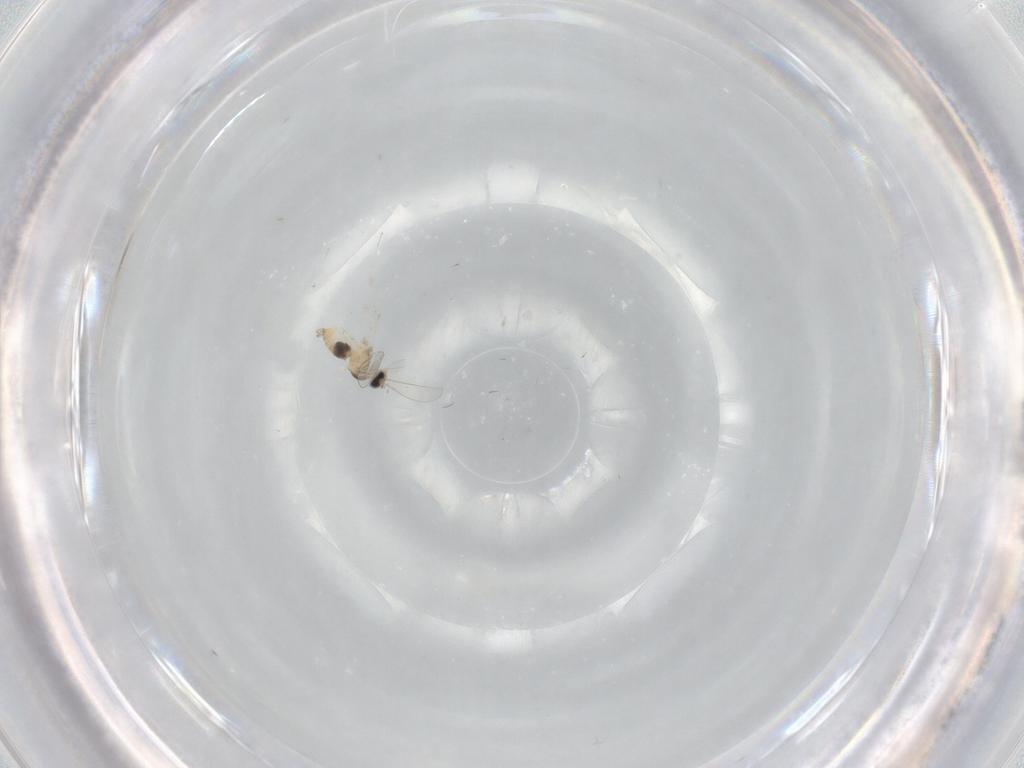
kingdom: Animalia
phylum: Arthropoda
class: Insecta
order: Diptera
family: Cecidomyiidae
